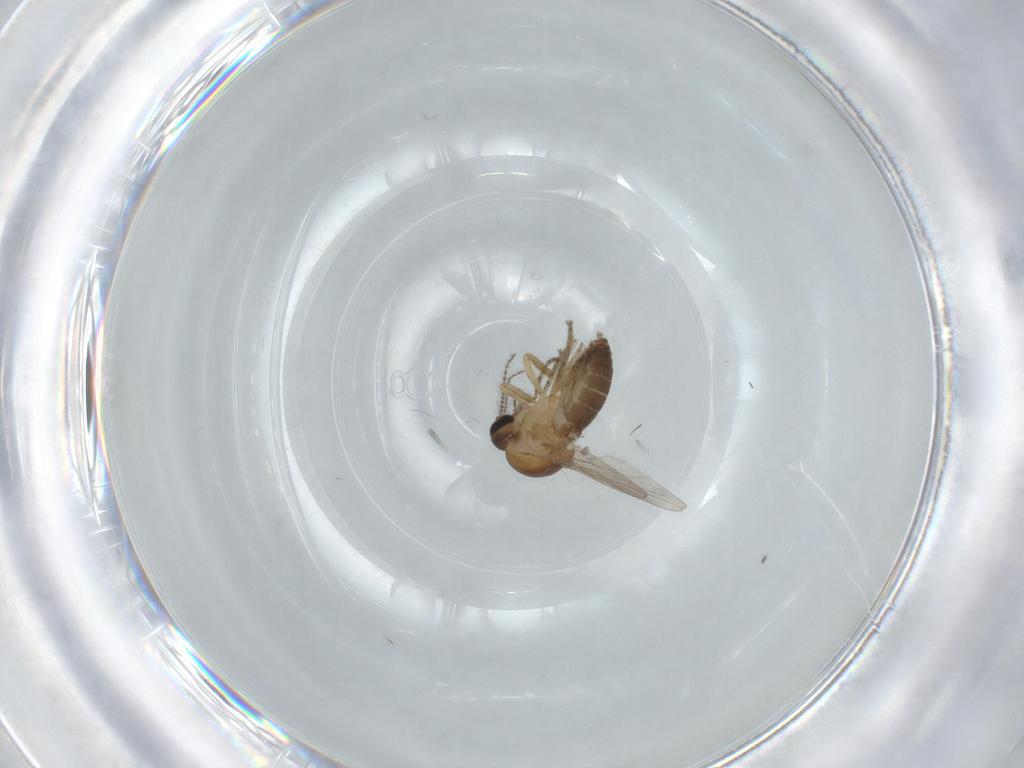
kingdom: Animalia
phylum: Arthropoda
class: Insecta
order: Diptera
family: Ceratopogonidae
